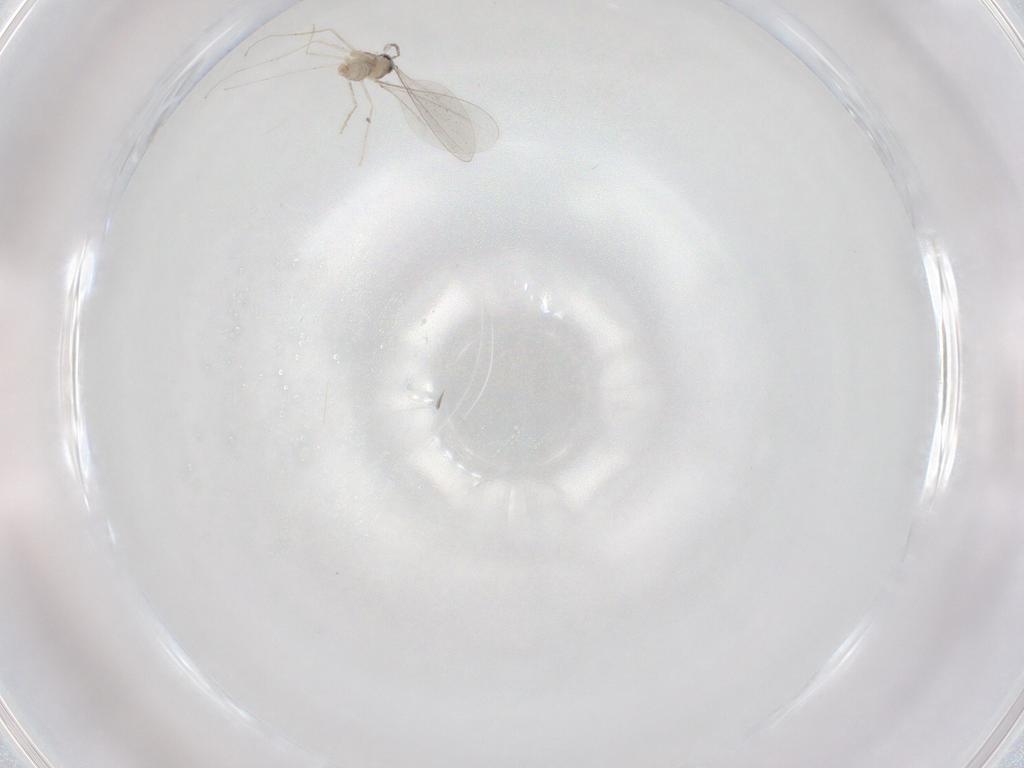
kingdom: Animalia
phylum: Arthropoda
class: Insecta
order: Diptera
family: Cecidomyiidae
